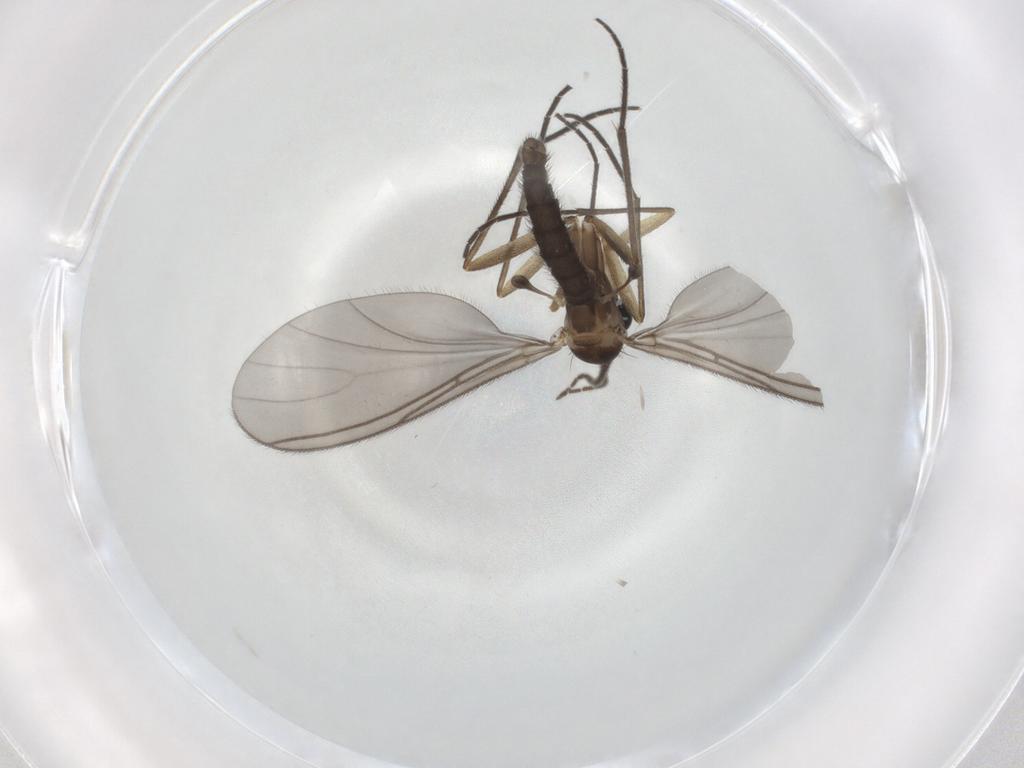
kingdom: Animalia
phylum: Arthropoda
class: Insecta
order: Diptera
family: Sciaridae
